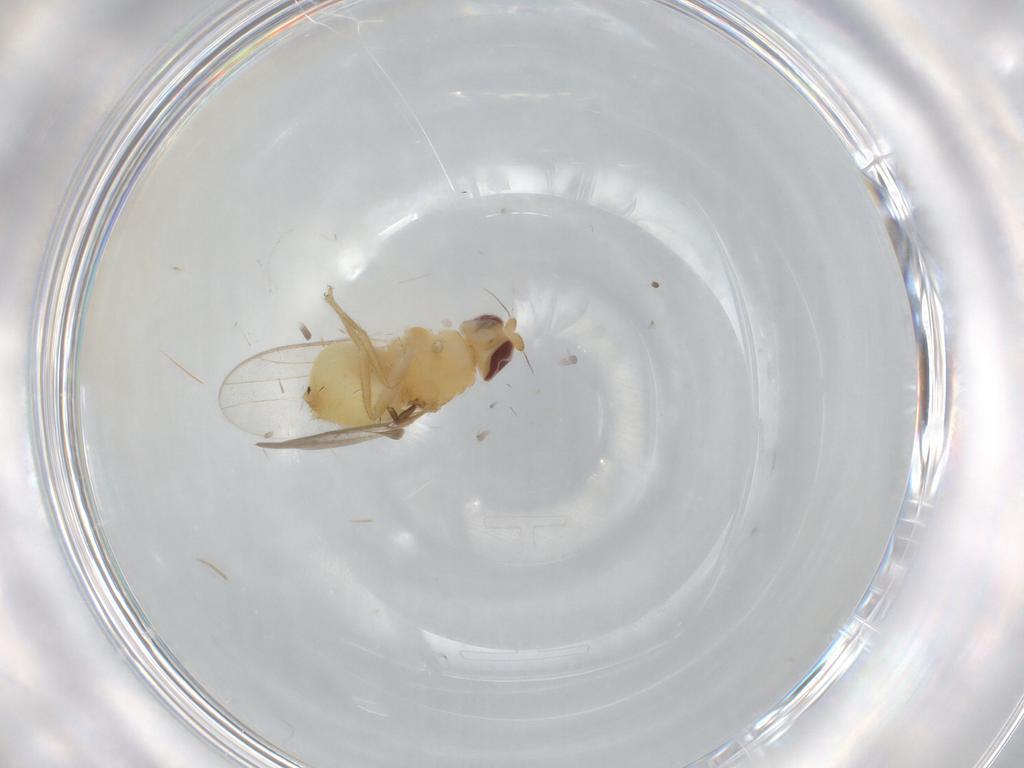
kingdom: Animalia
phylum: Arthropoda
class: Insecta
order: Diptera
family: Chloropidae
